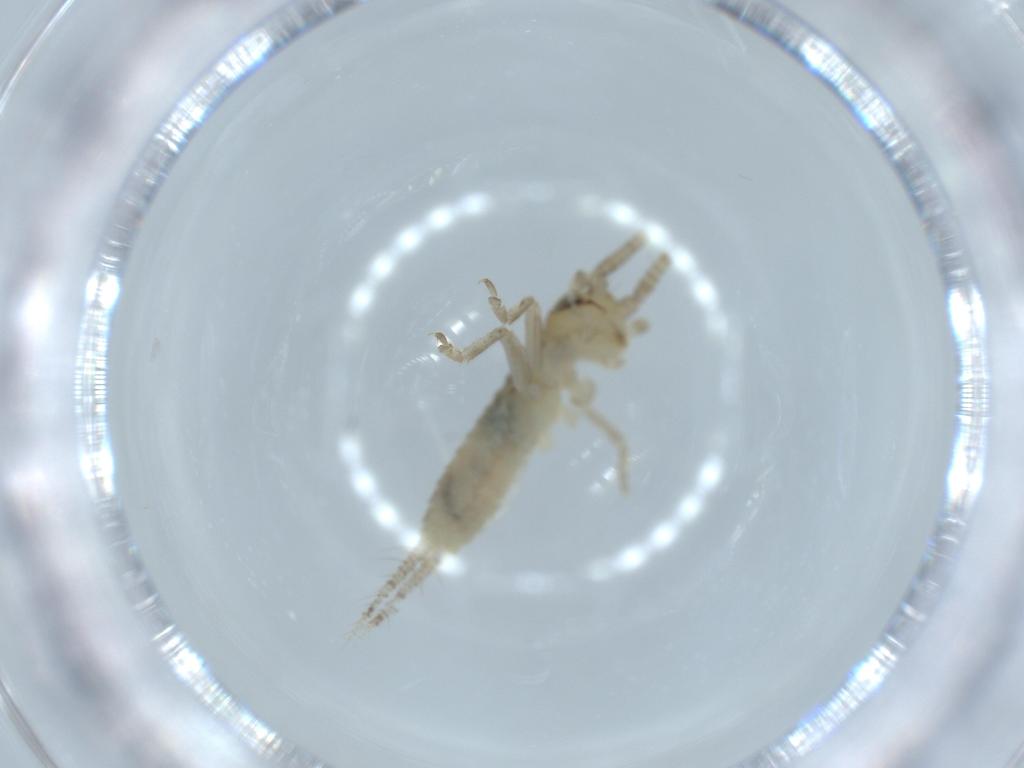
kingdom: Animalia
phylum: Arthropoda
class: Insecta
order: Orthoptera
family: Gryllidae
